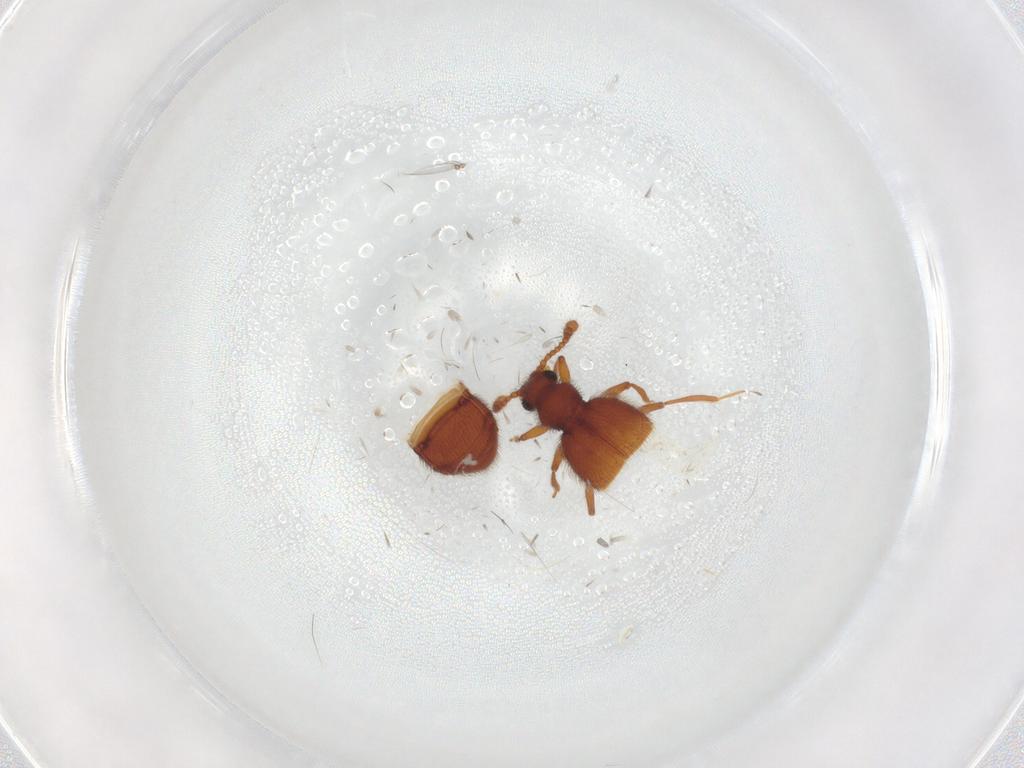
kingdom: Animalia
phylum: Arthropoda
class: Insecta
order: Coleoptera
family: Staphylinidae
